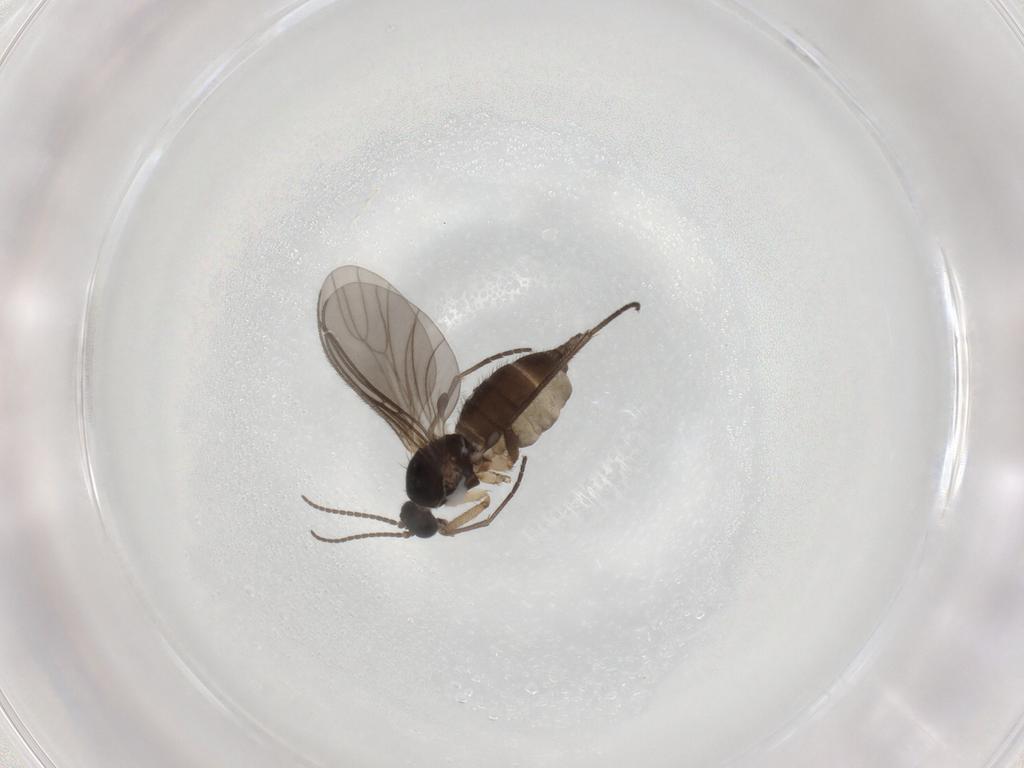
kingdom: Animalia
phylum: Arthropoda
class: Insecta
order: Diptera
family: Sciaridae
